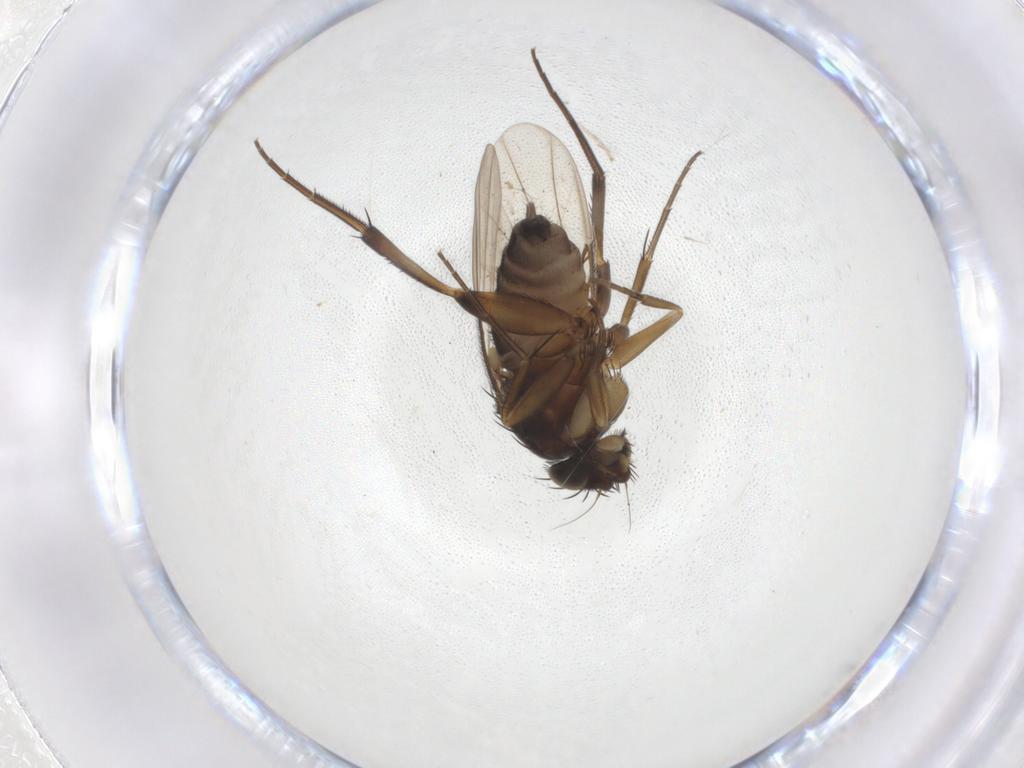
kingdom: Animalia
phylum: Arthropoda
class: Insecta
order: Diptera
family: Phoridae
